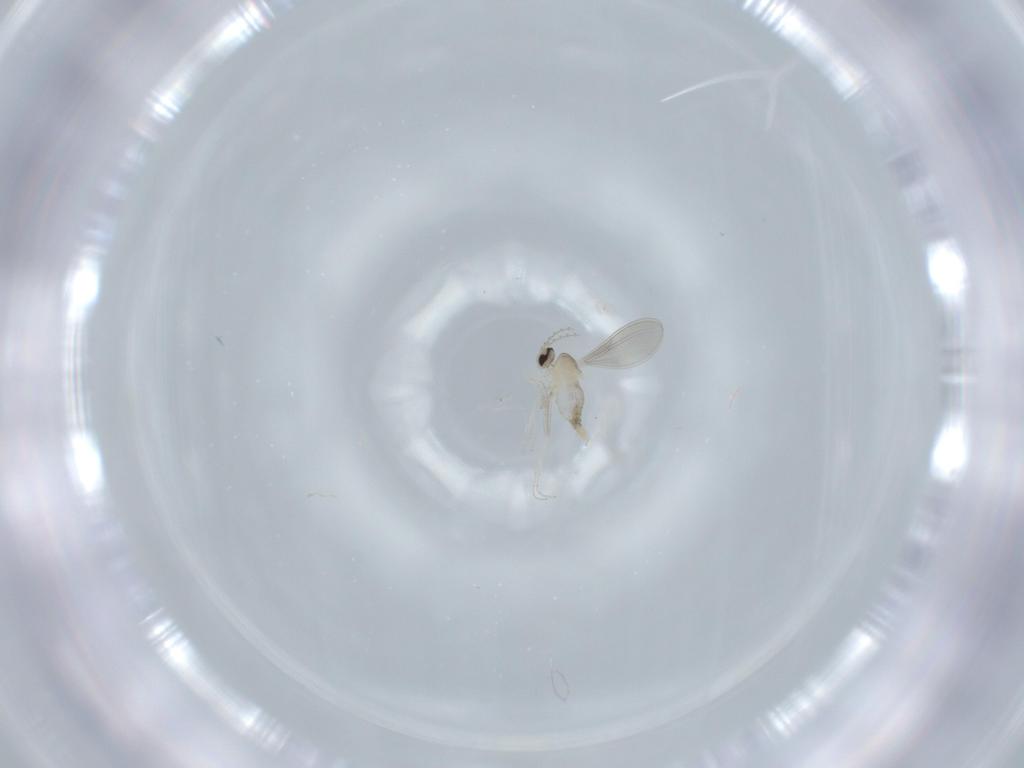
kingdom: Animalia
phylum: Arthropoda
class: Insecta
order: Diptera
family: Cecidomyiidae
